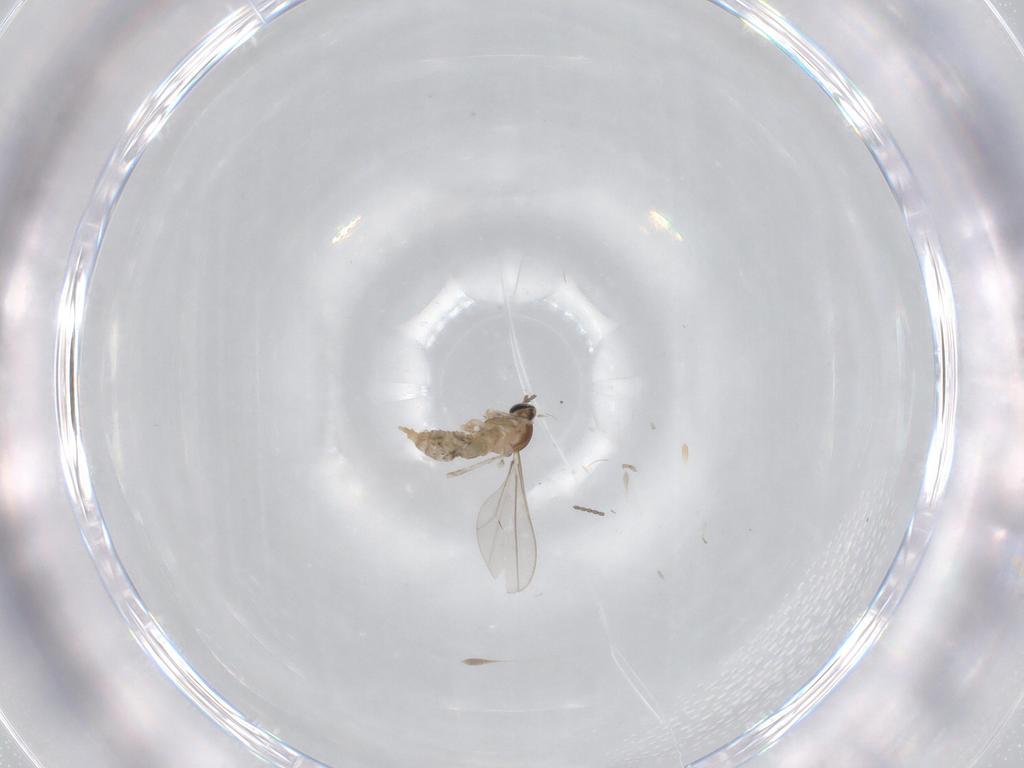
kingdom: Animalia
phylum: Arthropoda
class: Insecta
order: Diptera
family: Cecidomyiidae
